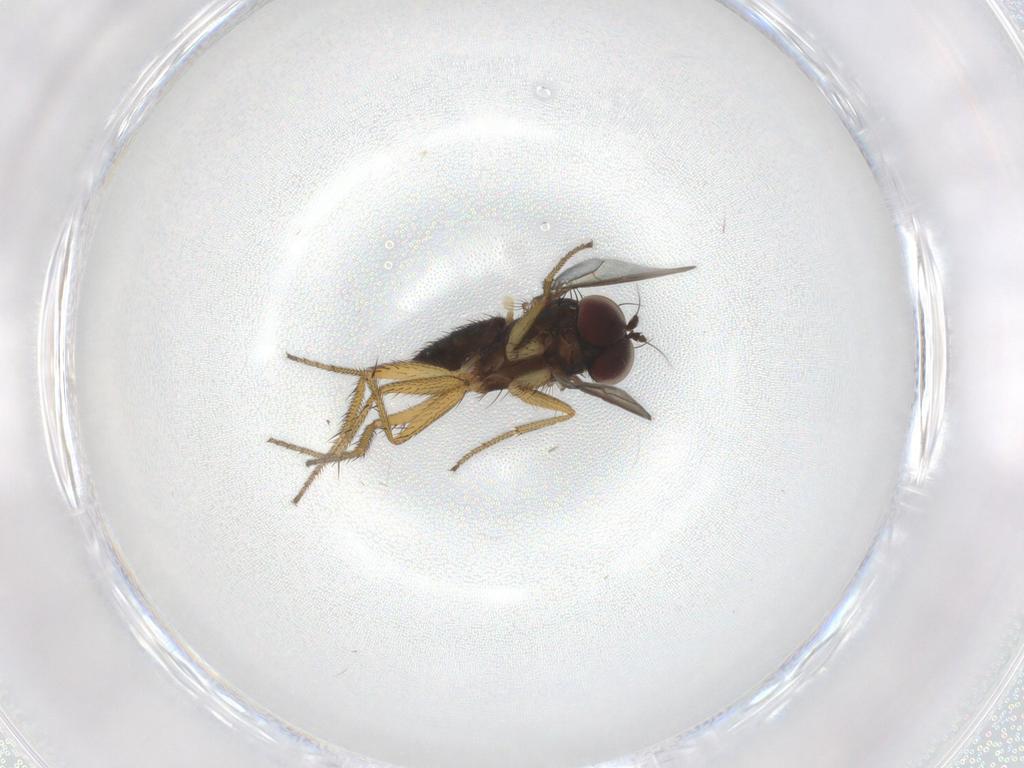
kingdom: Animalia
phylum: Arthropoda
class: Insecta
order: Diptera
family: Dolichopodidae
